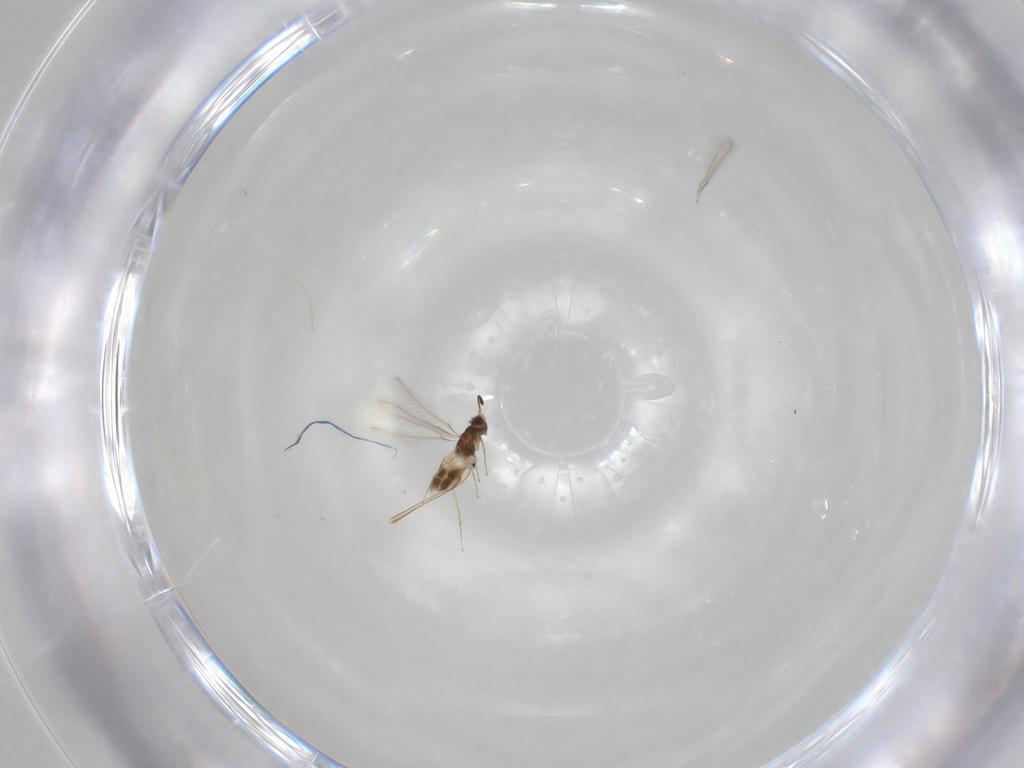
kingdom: Animalia
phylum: Arthropoda
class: Insecta
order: Hymenoptera
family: Mymaridae
